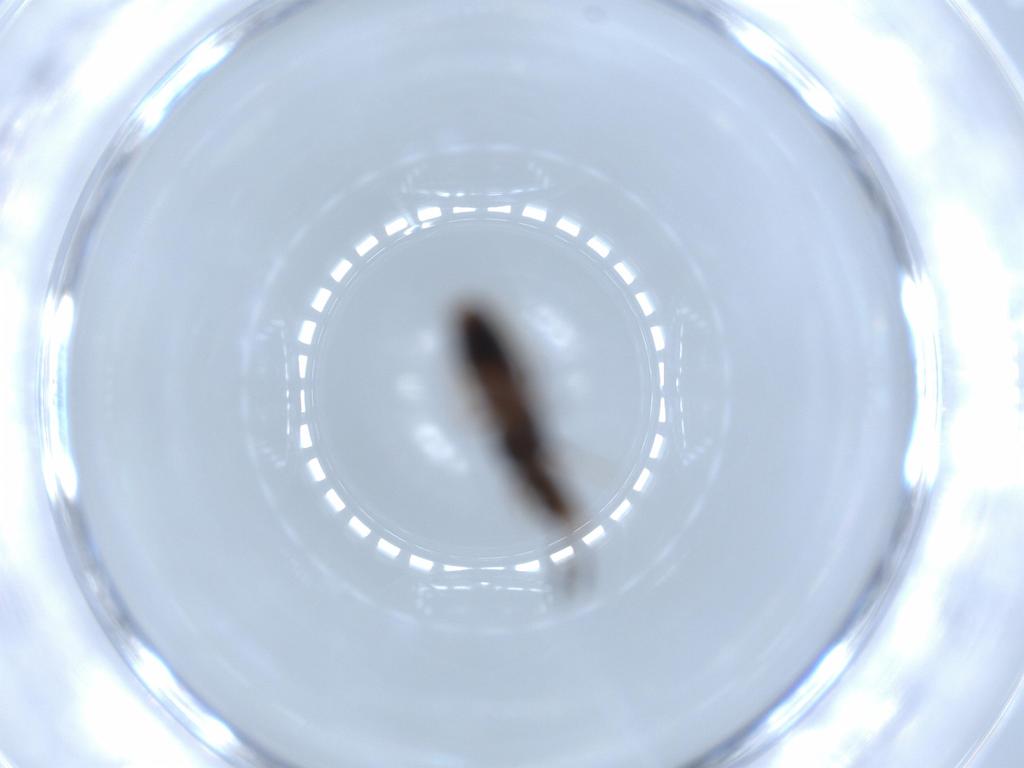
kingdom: Animalia
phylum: Arthropoda
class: Insecta
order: Coleoptera
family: Staphylinidae
